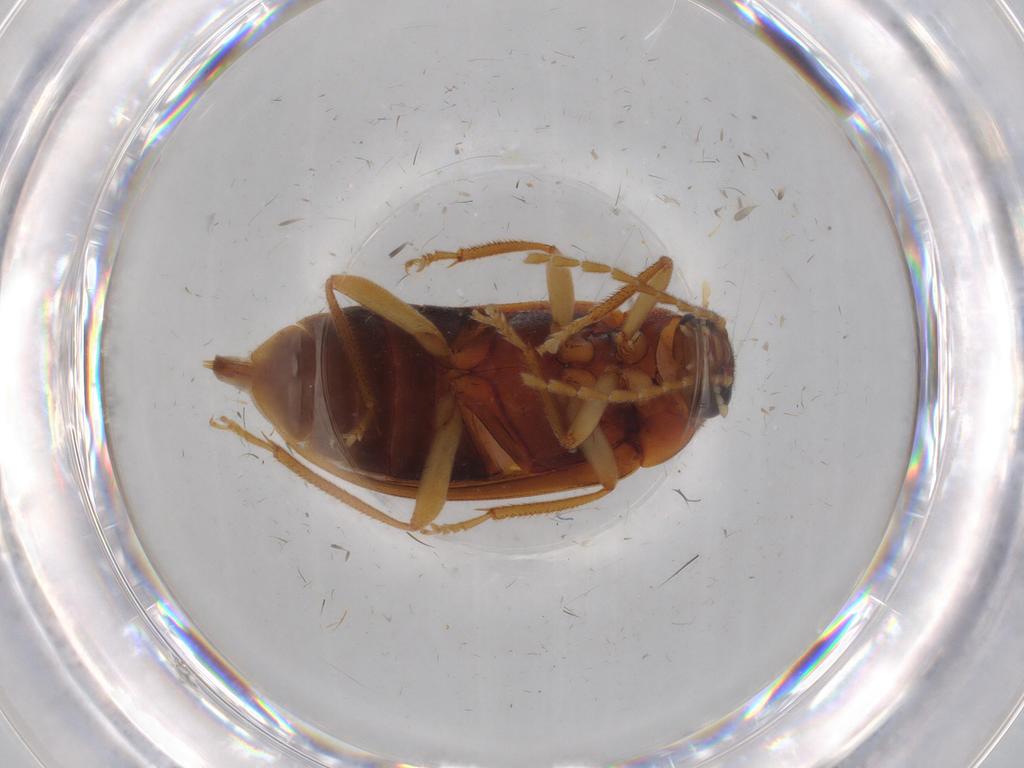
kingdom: Animalia
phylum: Arthropoda
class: Insecta
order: Coleoptera
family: Ptilodactylidae
